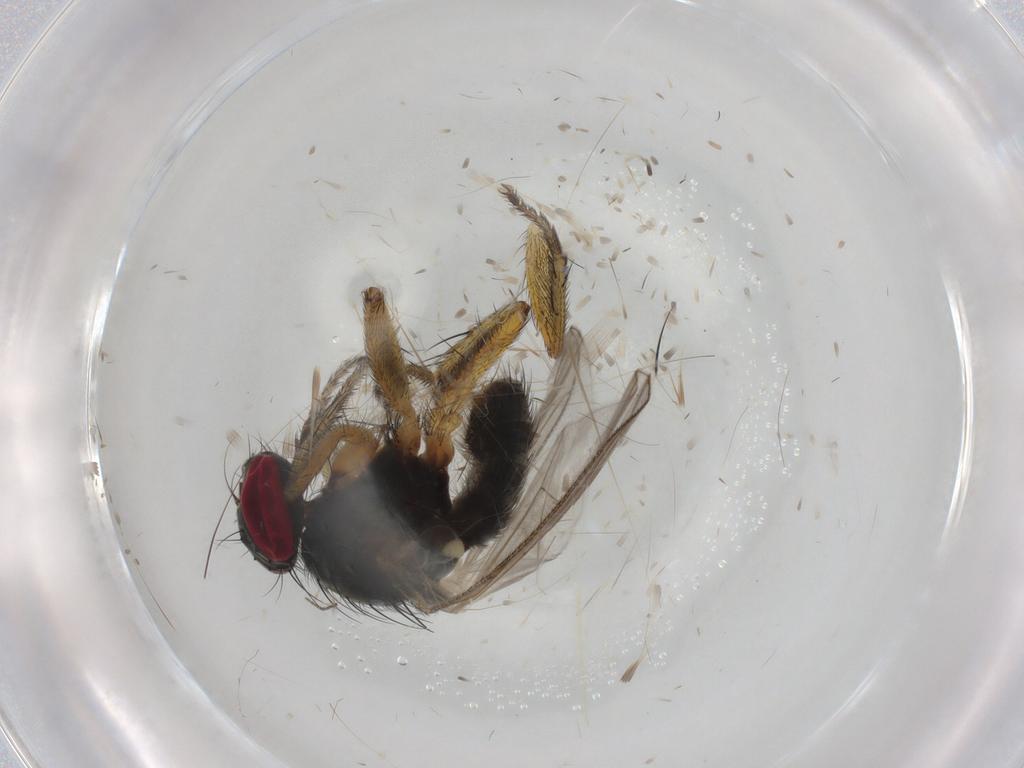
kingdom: Animalia
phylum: Arthropoda
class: Insecta
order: Diptera
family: Muscidae
